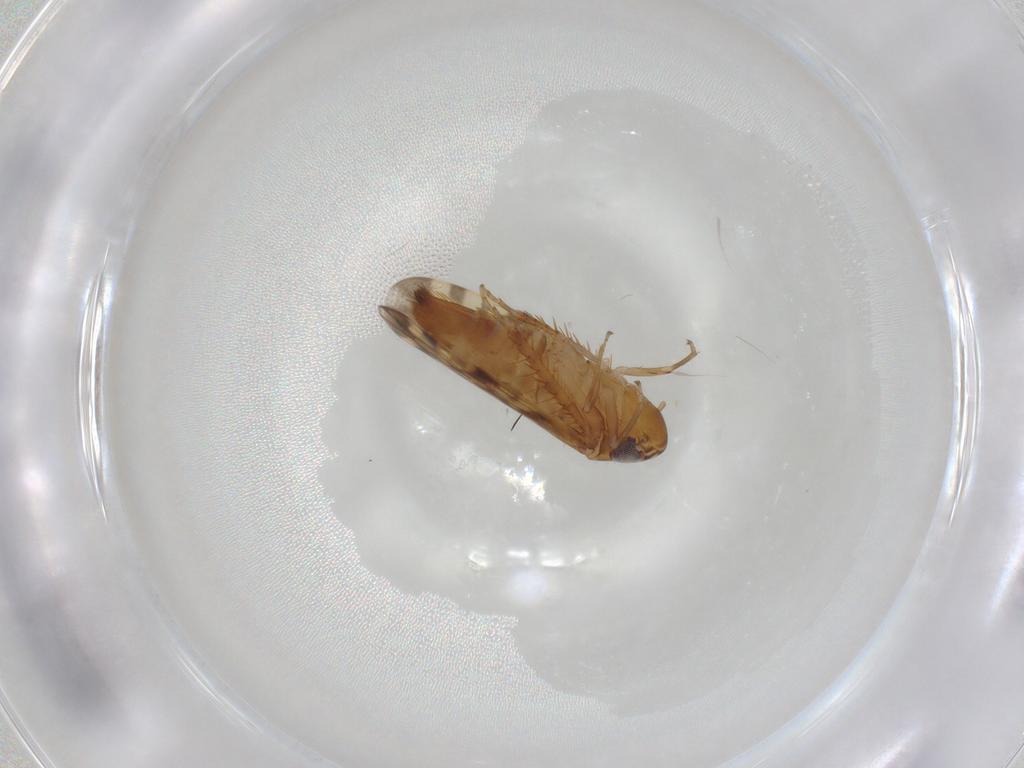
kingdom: Animalia
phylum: Arthropoda
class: Insecta
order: Hemiptera
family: Cicadellidae
